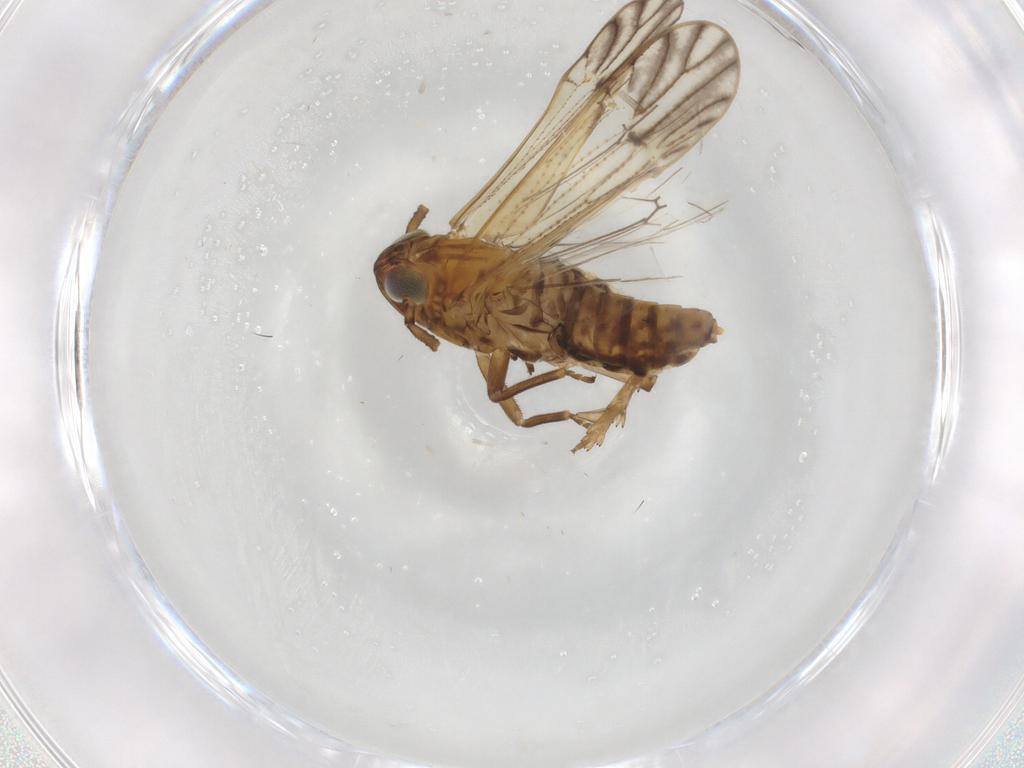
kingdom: Animalia
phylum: Arthropoda
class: Insecta
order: Hemiptera
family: Delphacidae
